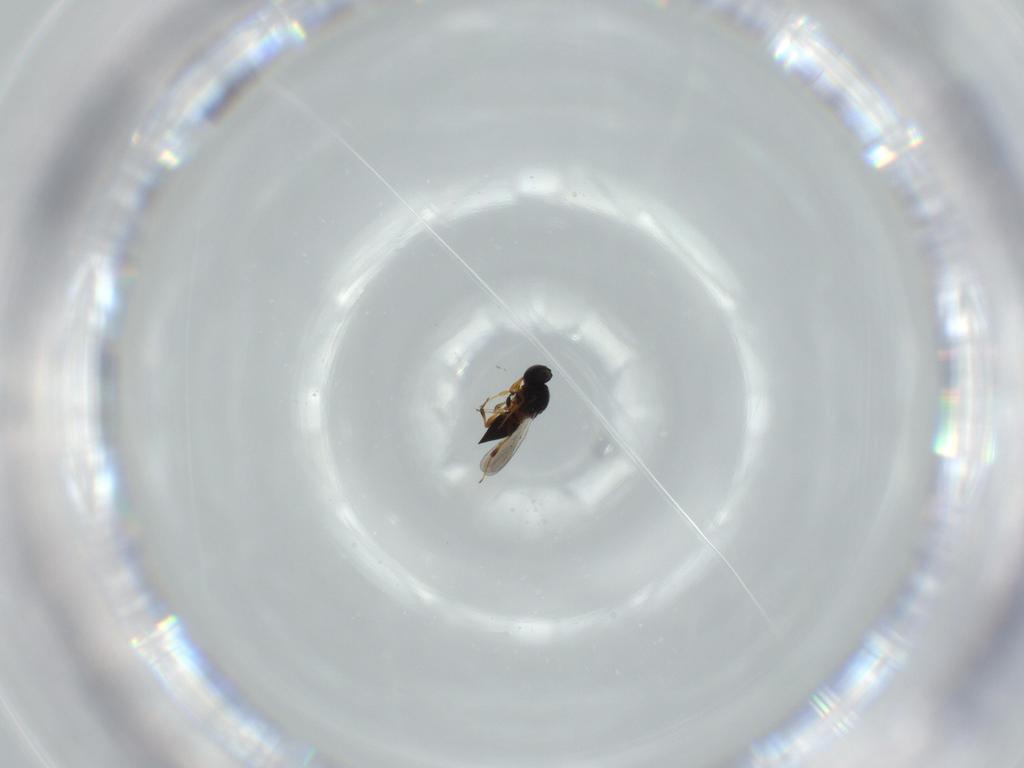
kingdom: Animalia
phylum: Arthropoda
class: Insecta
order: Hymenoptera
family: Platygastridae
